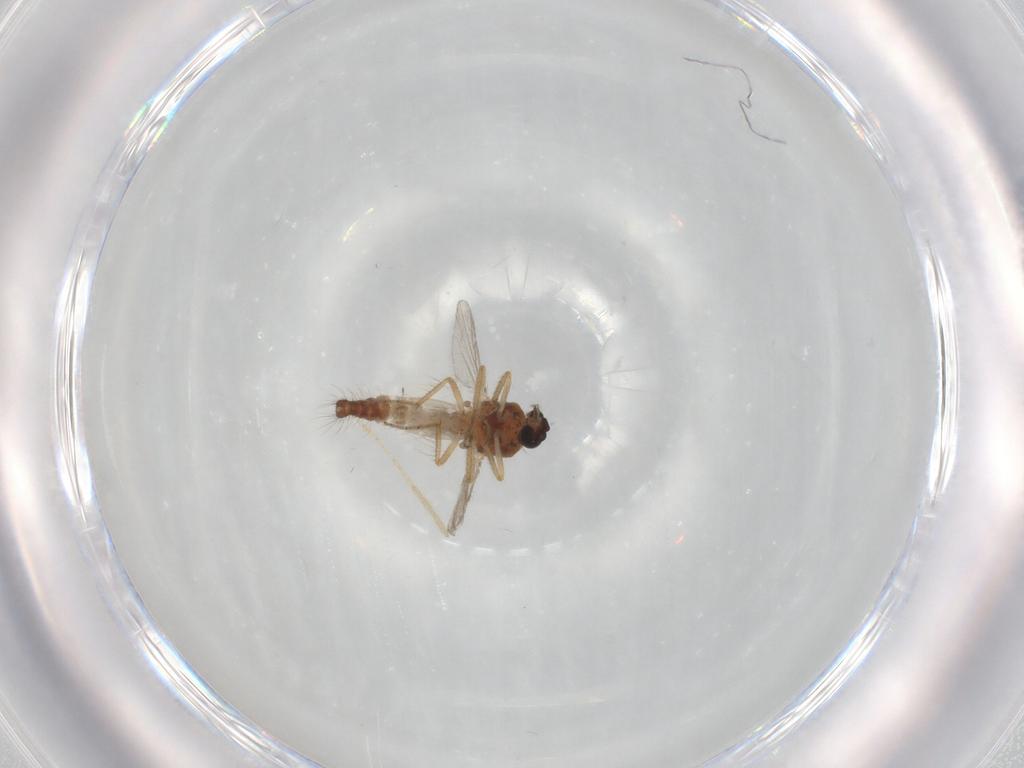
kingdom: Animalia
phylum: Arthropoda
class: Insecta
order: Diptera
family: Ceratopogonidae
